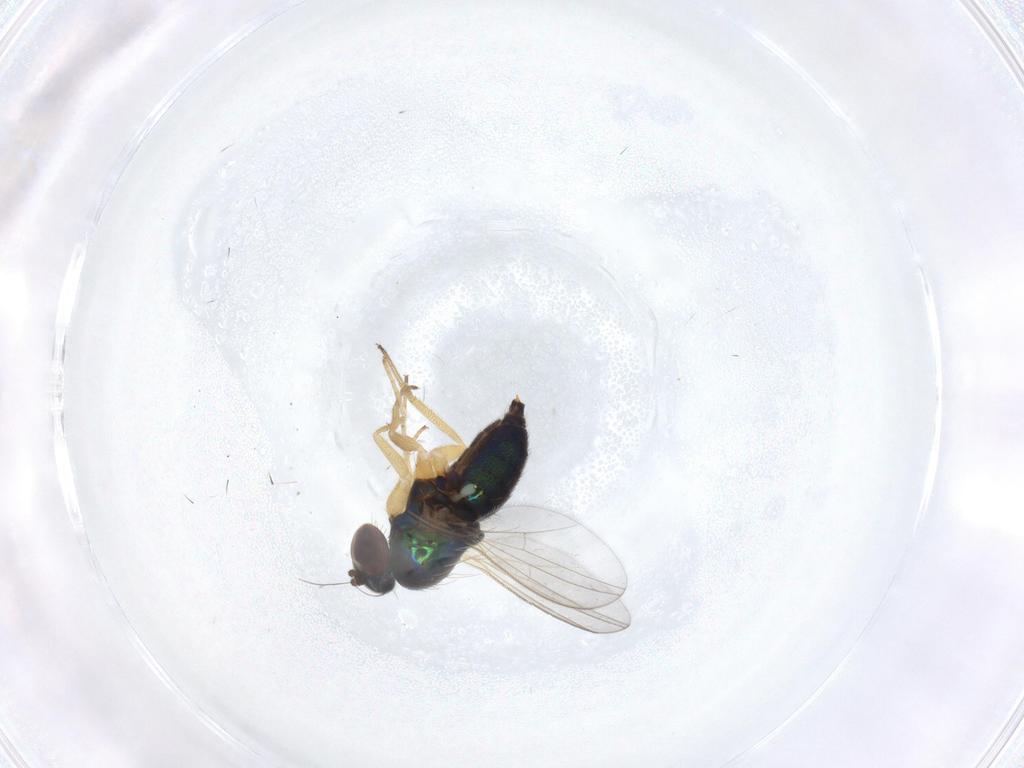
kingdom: Animalia
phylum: Arthropoda
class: Insecta
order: Diptera
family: Dolichopodidae
